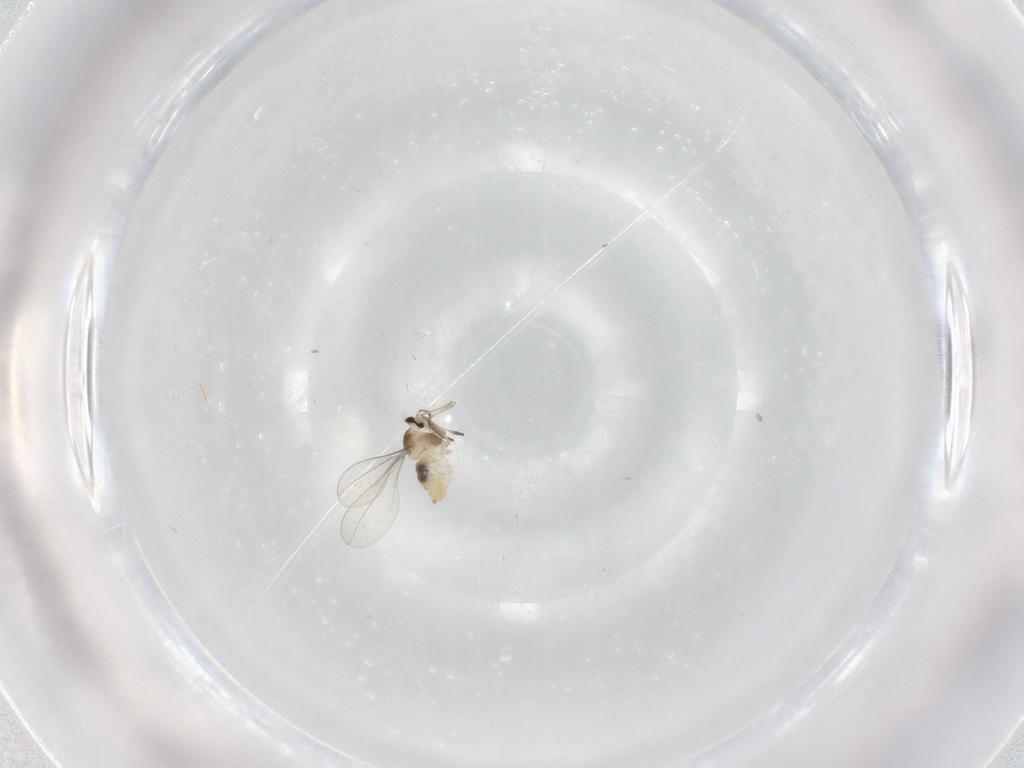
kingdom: Animalia
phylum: Arthropoda
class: Insecta
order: Diptera
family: Cecidomyiidae
